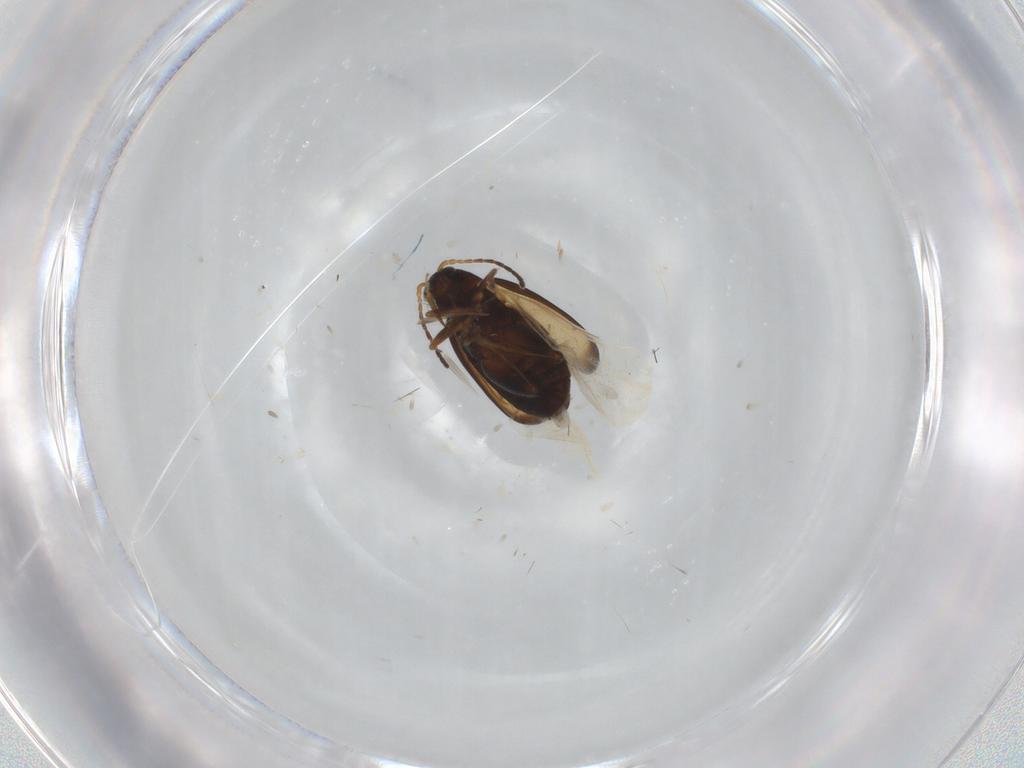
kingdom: Animalia
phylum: Arthropoda
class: Insecta
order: Coleoptera
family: Chrysomelidae
